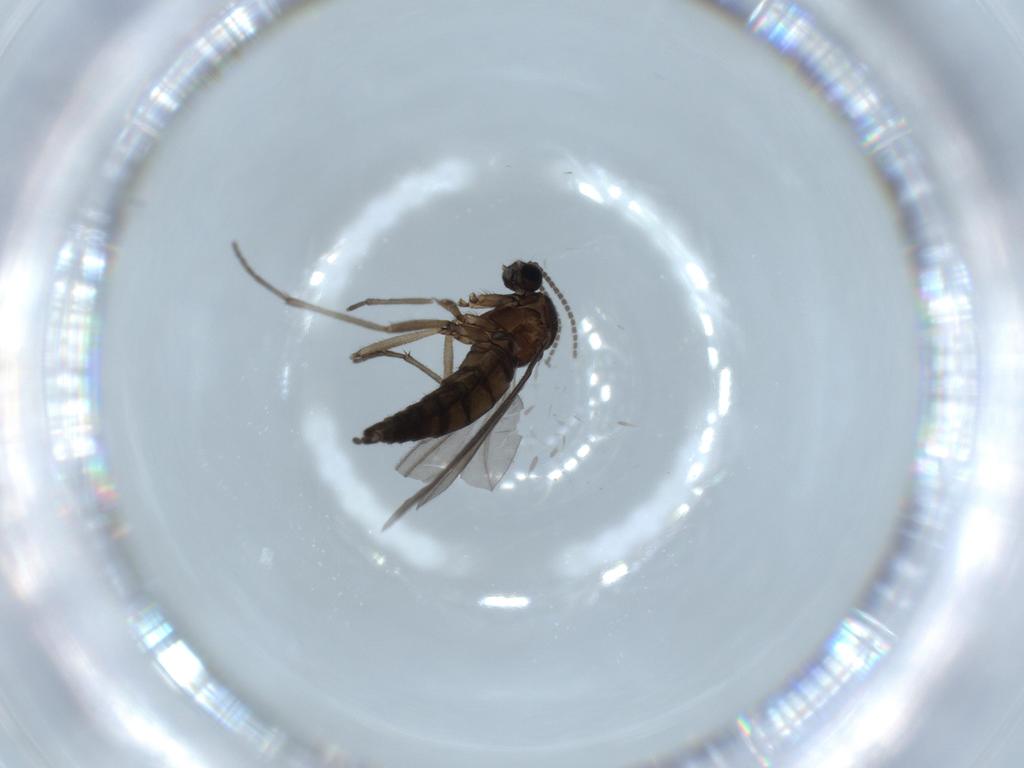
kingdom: Animalia
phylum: Arthropoda
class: Insecta
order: Diptera
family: Sciaridae
